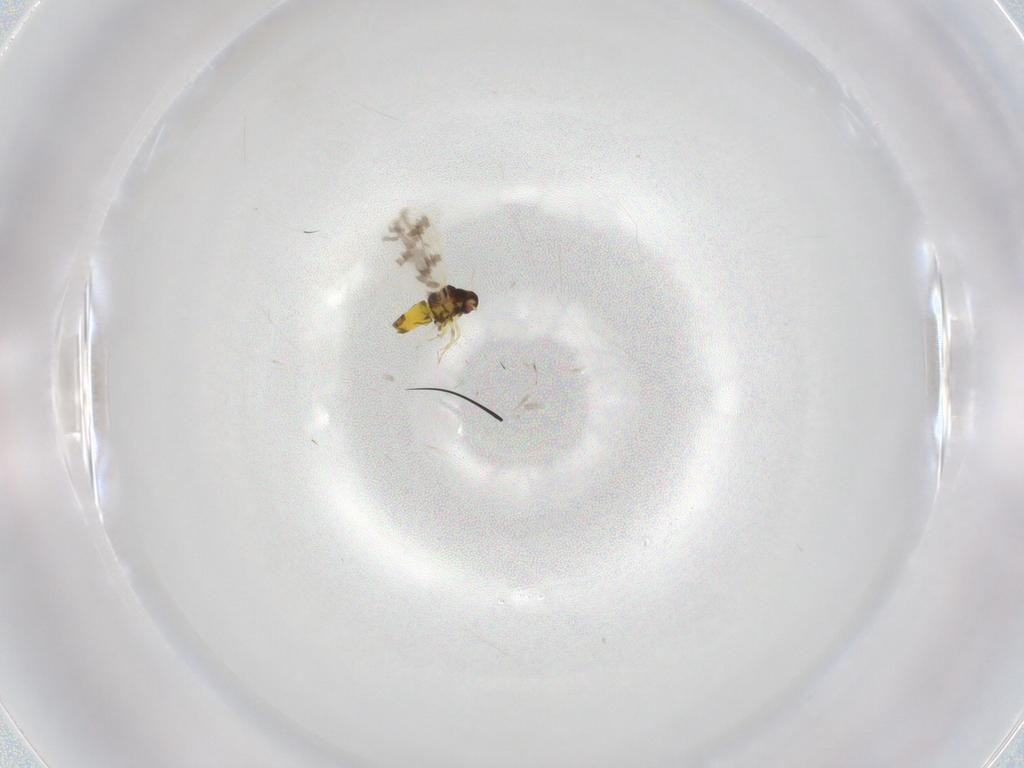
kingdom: Animalia
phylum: Arthropoda
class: Insecta
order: Hemiptera
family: Aleyrodidae
